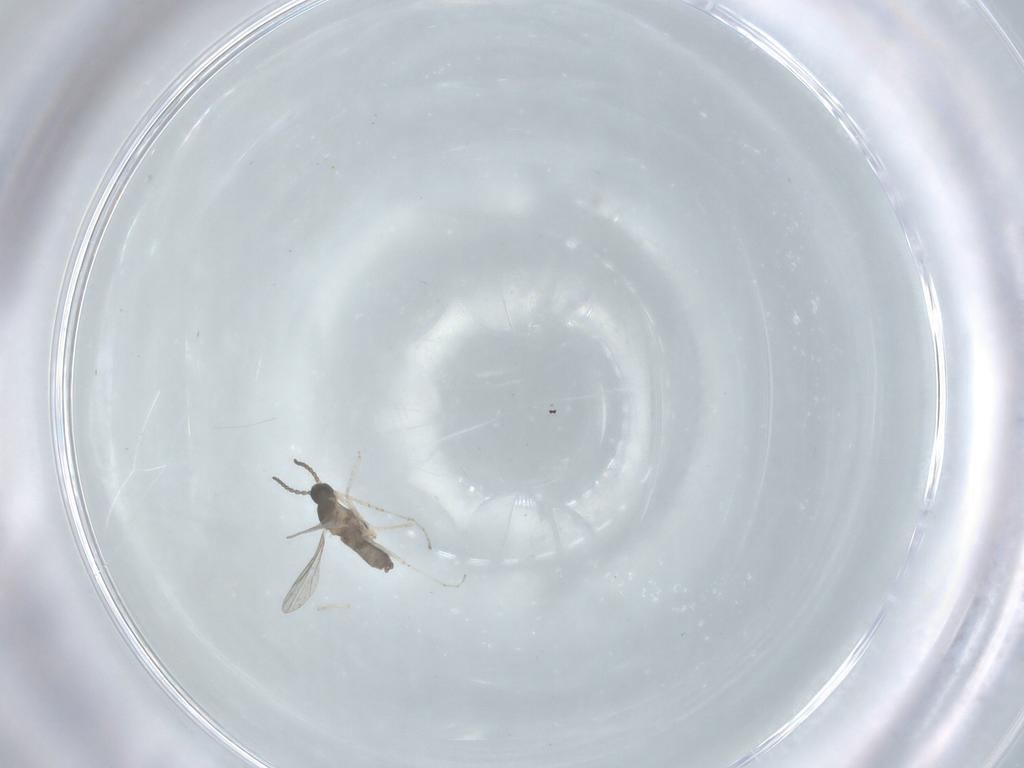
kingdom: Animalia
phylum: Arthropoda
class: Insecta
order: Diptera
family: Cecidomyiidae
